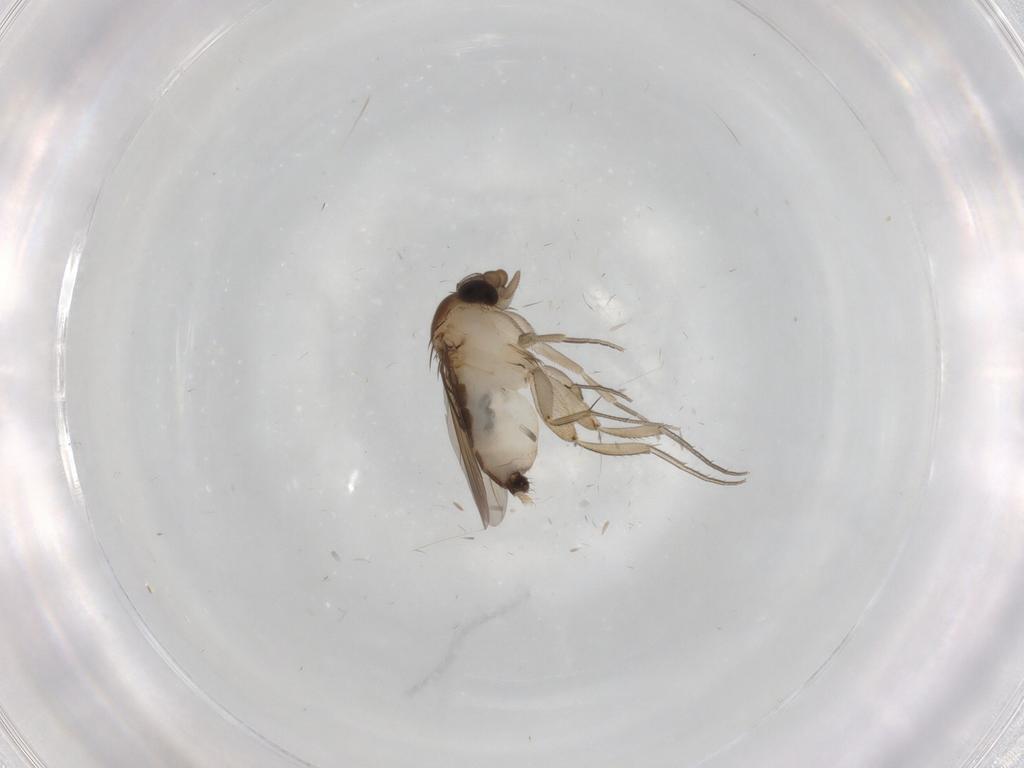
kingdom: Animalia
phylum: Arthropoda
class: Insecta
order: Diptera
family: Phoridae
